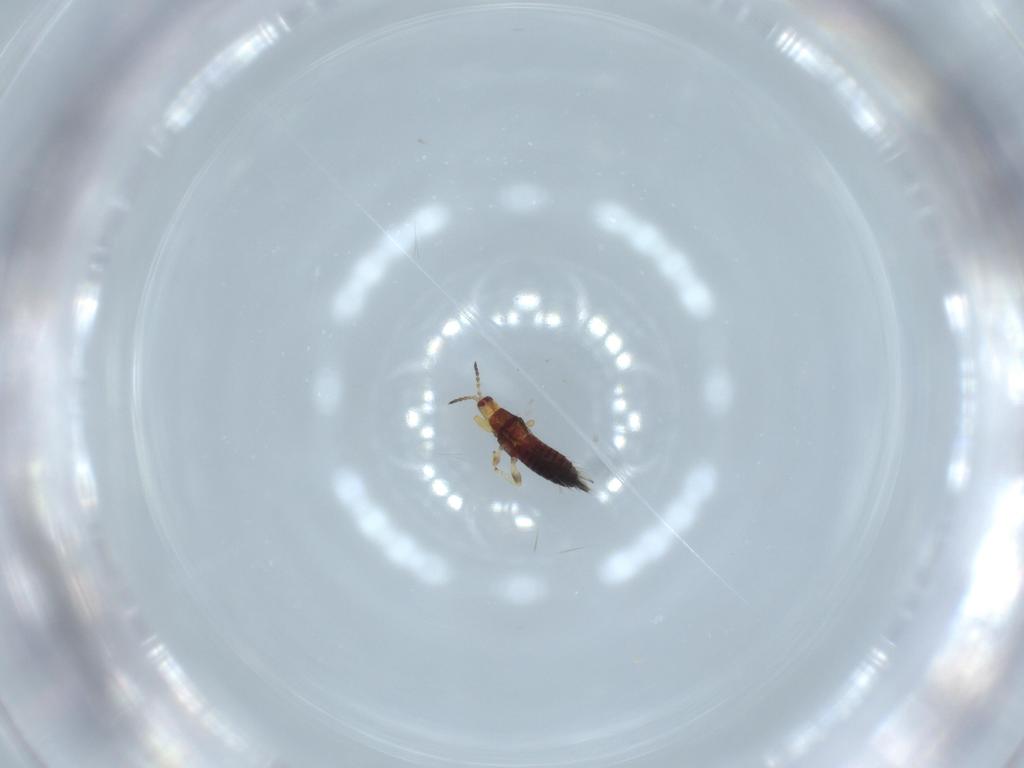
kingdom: Animalia
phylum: Arthropoda
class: Insecta
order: Thysanoptera
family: Phlaeothripidae
